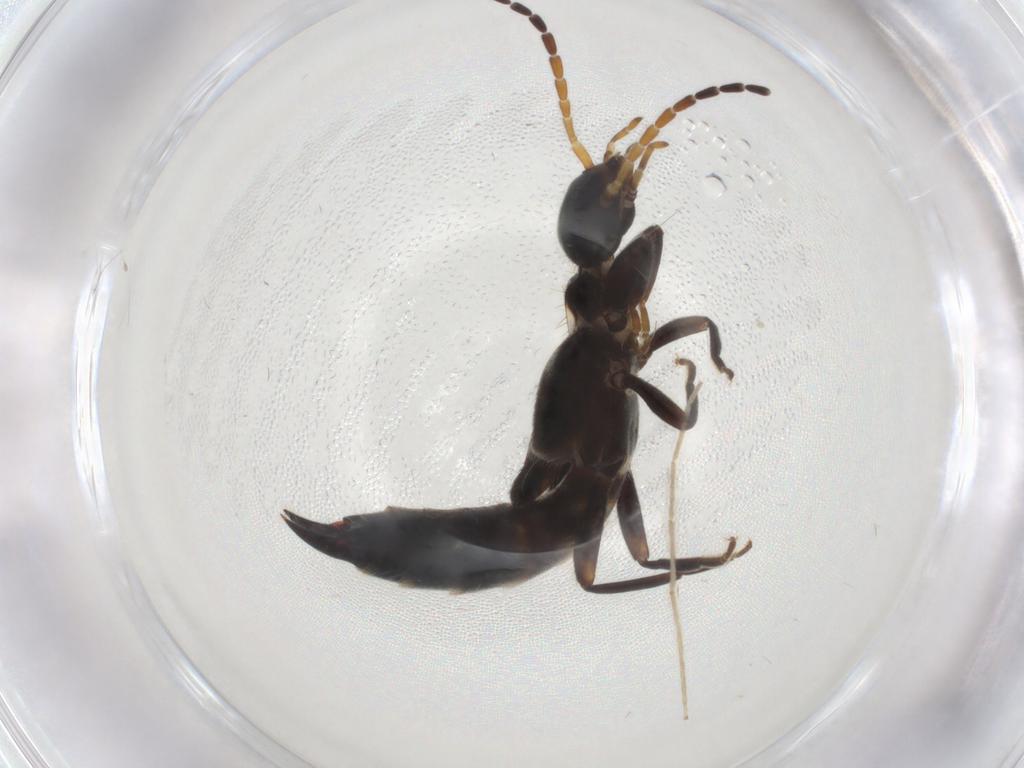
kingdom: Animalia
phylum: Arthropoda
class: Insecta
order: Dermaptera
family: Forficulidae
